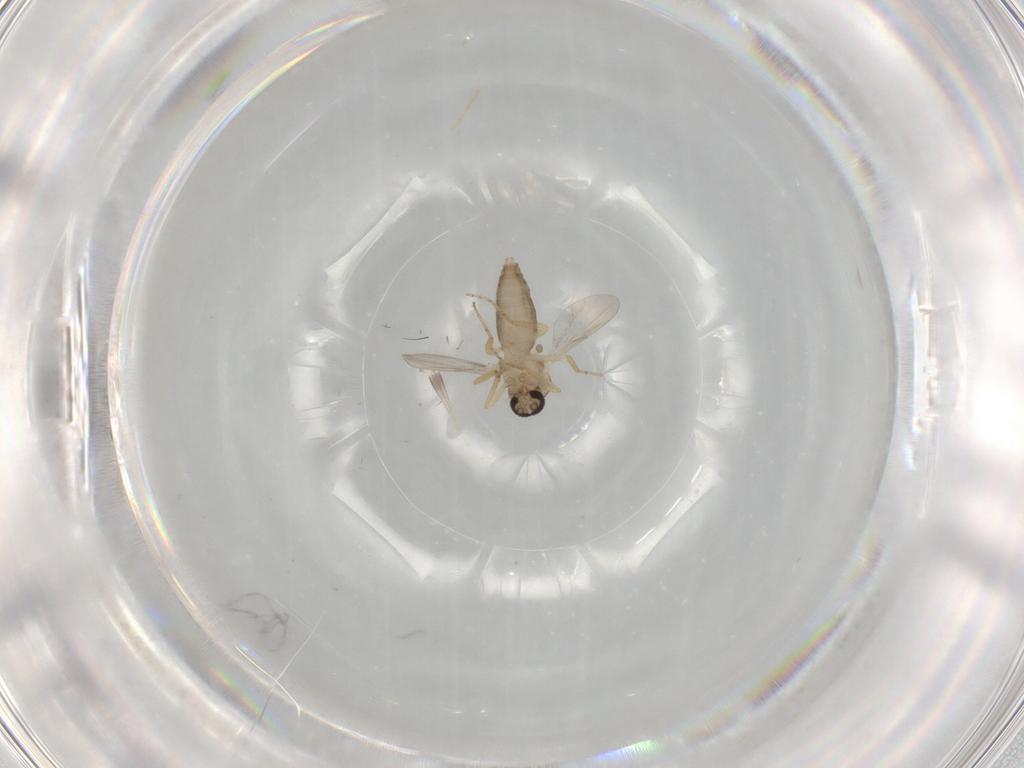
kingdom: Animalia
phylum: Arthropoda
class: Insecta
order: Diptera
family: Ceratopogonidae
